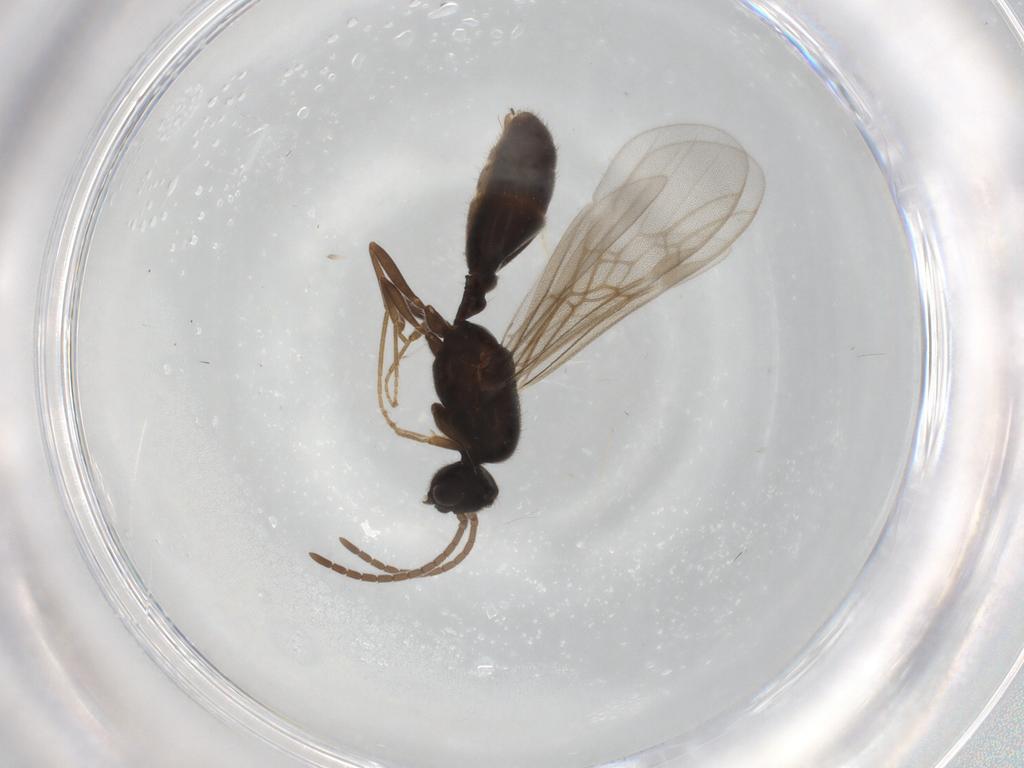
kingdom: Animalia
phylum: Arthropoda
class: Insecta
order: Hymenoptera
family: Formicidae
